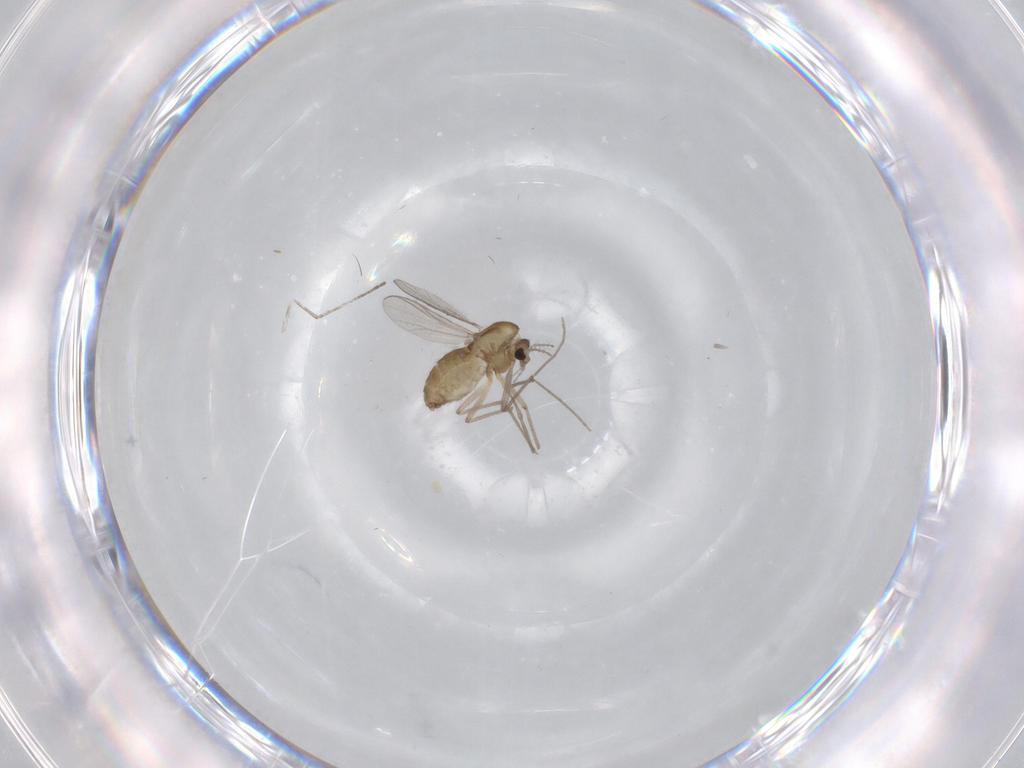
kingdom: Animalia
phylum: Arthropoda
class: Insecta
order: Diptera
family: Chironomidae
